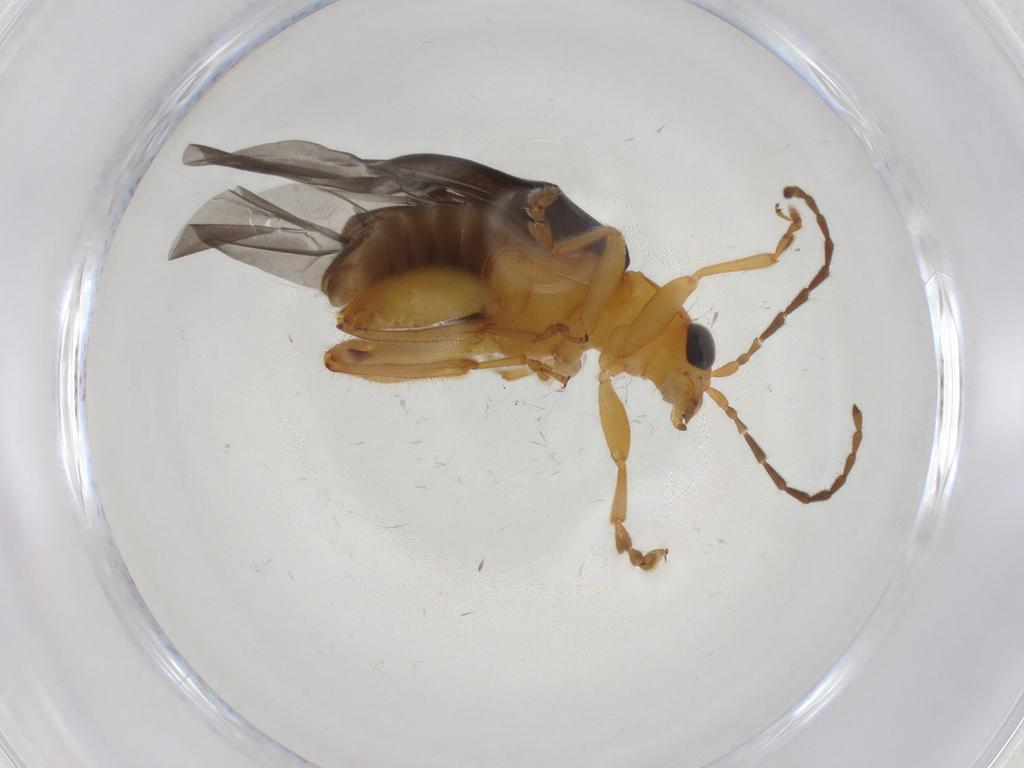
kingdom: Animalia
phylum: Arthropoda
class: Insecta
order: Coleoptera
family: Chrysomelidae
